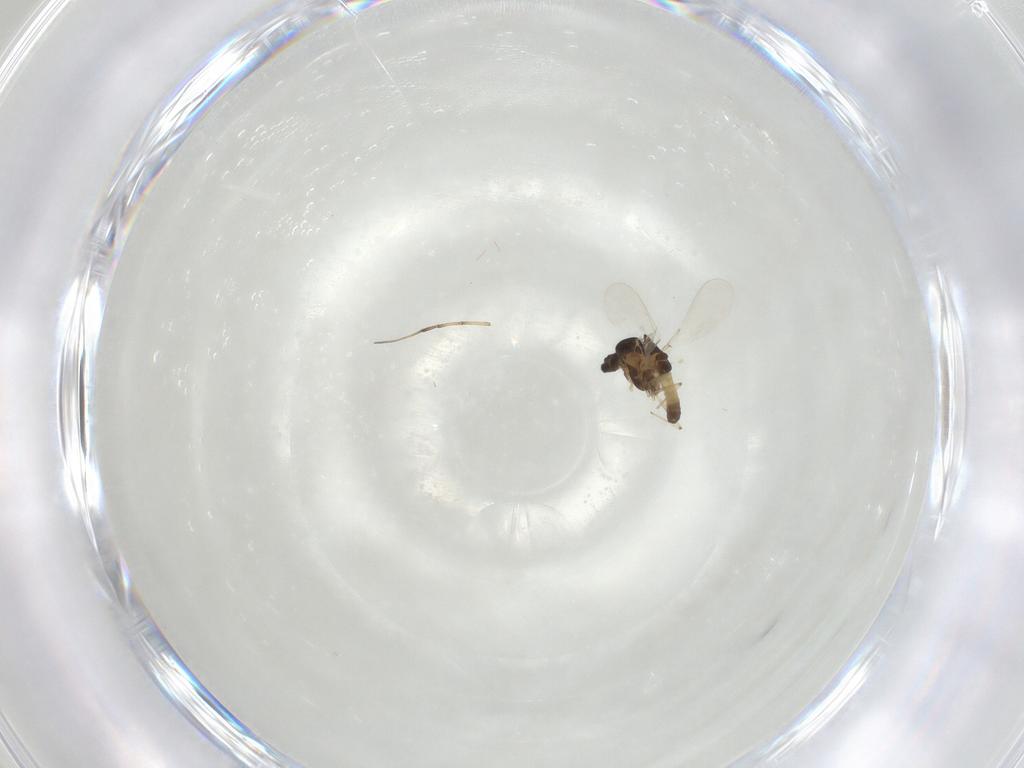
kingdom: Animalia
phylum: Arthropoda
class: Insecta
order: Diptera
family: Chironomidae
